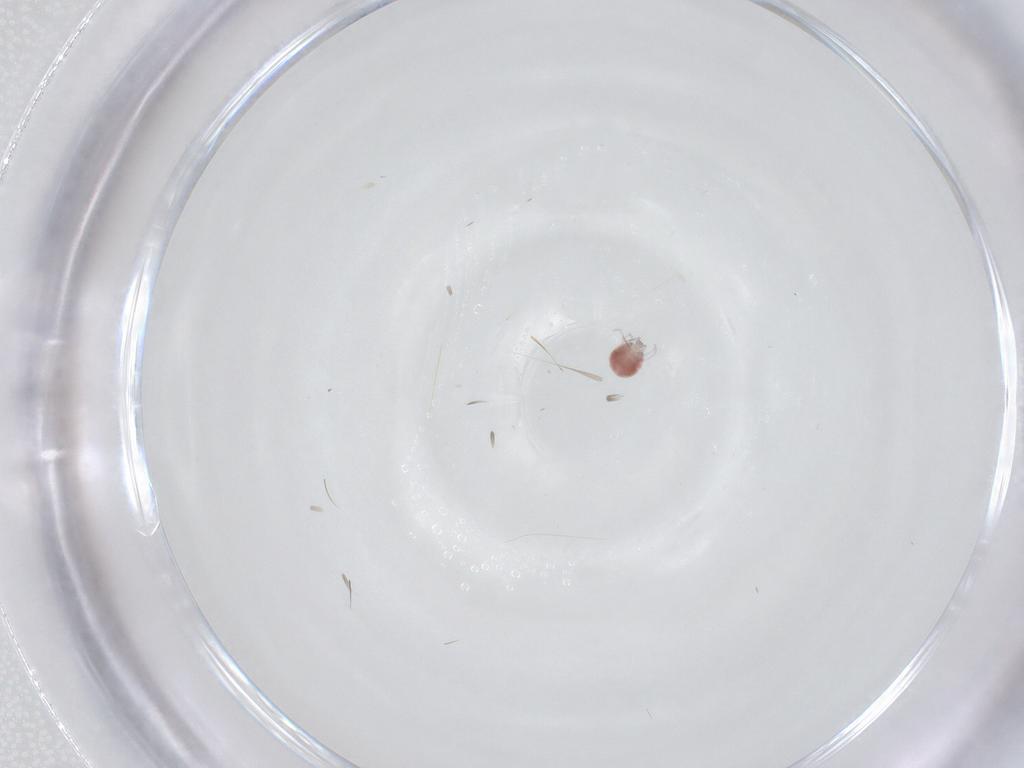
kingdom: Animalia
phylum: Arthropoda
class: Arachnida
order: Trombidiformes
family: Pionidae
